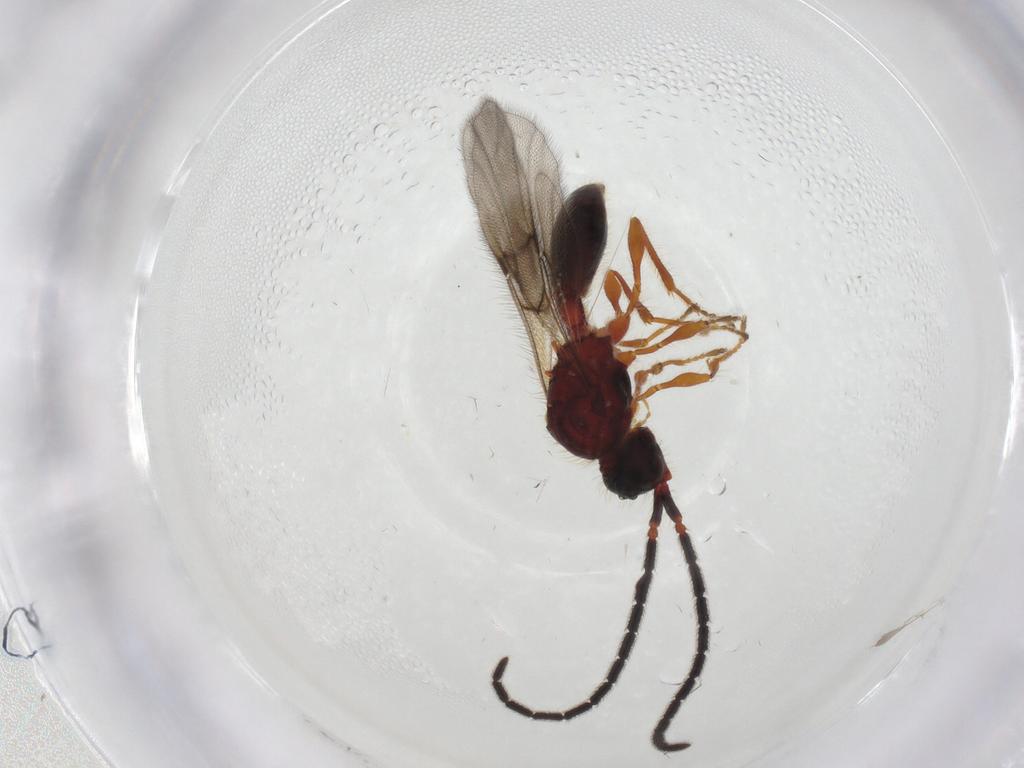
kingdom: Animalia
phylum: Arthropoda
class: Insecta
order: Hymenoptera
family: Diapriidae
